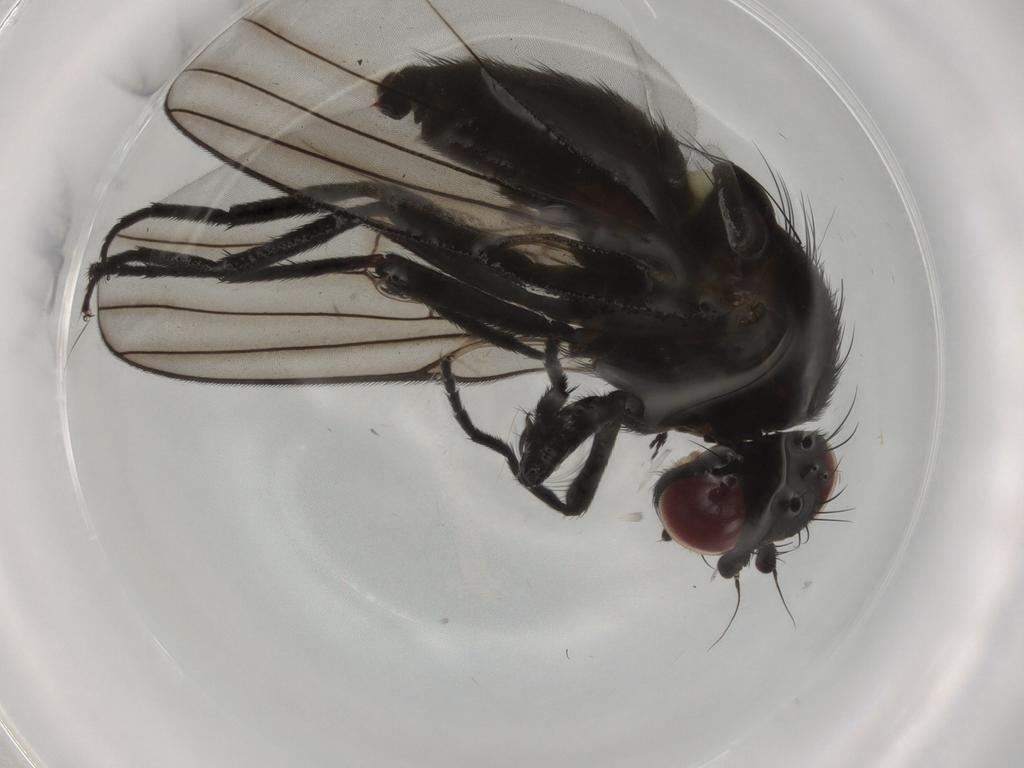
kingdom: Animalia
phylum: Arthropoda
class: Insecta
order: Diptera
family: Agromyzidae
